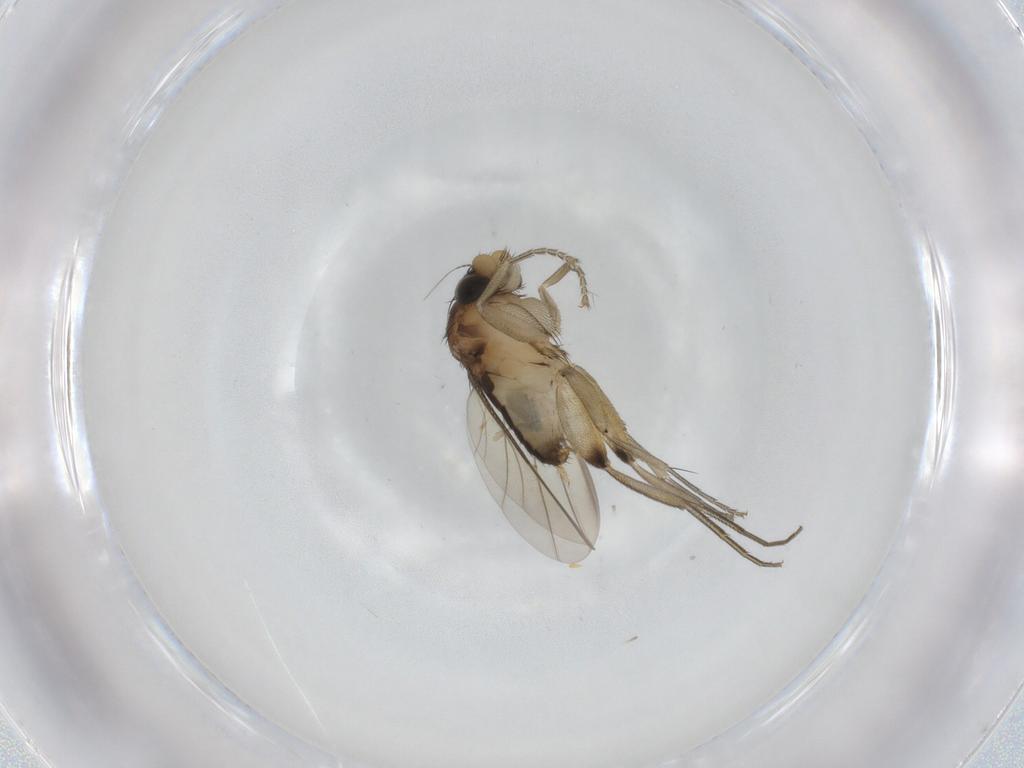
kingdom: Animalia
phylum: Arthropoda
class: Insecta
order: Diptera
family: Phoridae
